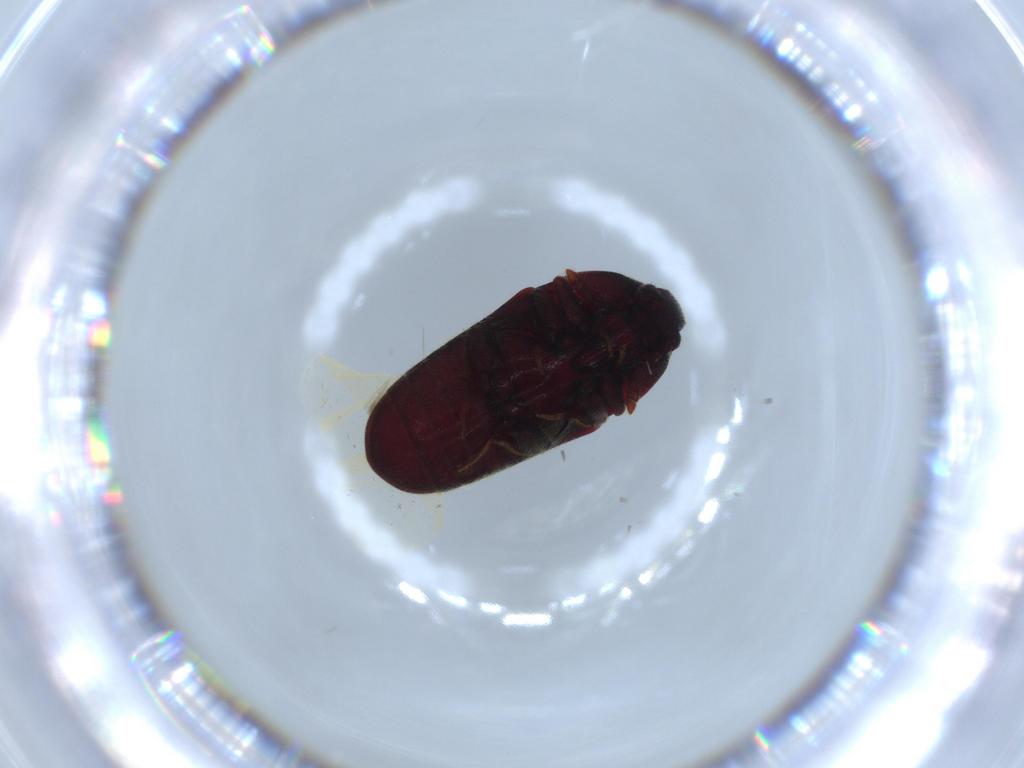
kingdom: Animalia
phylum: Arthropoda
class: Insecta
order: Coleoptera
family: Throscidae
